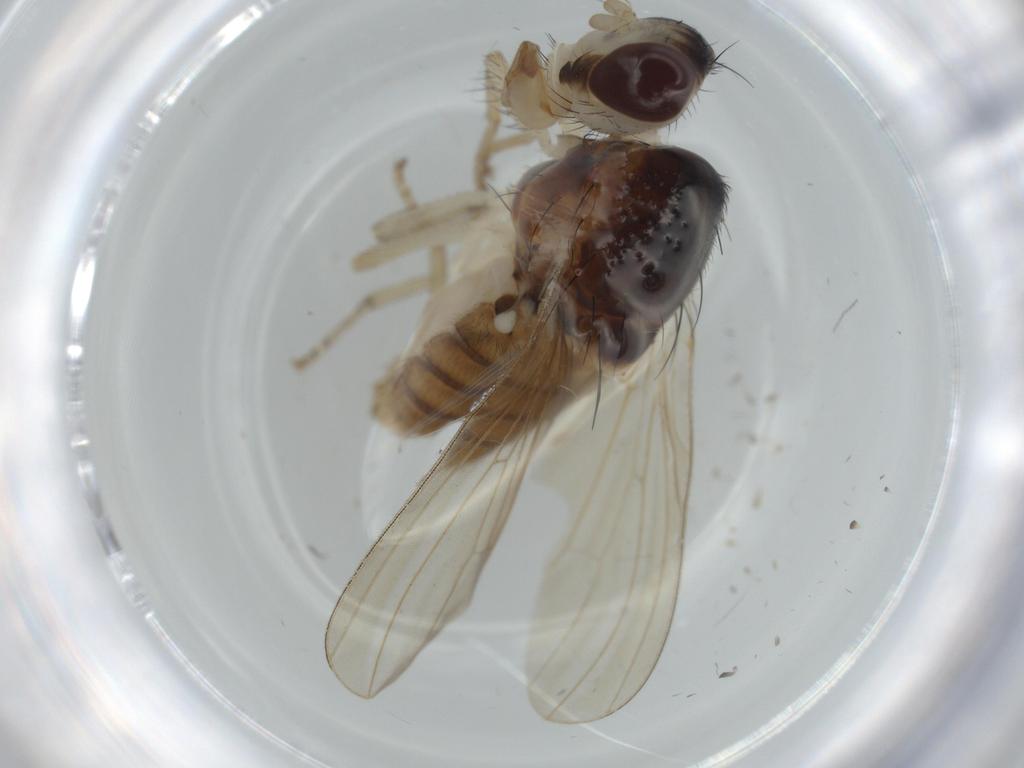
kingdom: Animalia
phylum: Arthropoda
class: Insecta
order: Diptera
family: Lauxaniidae
